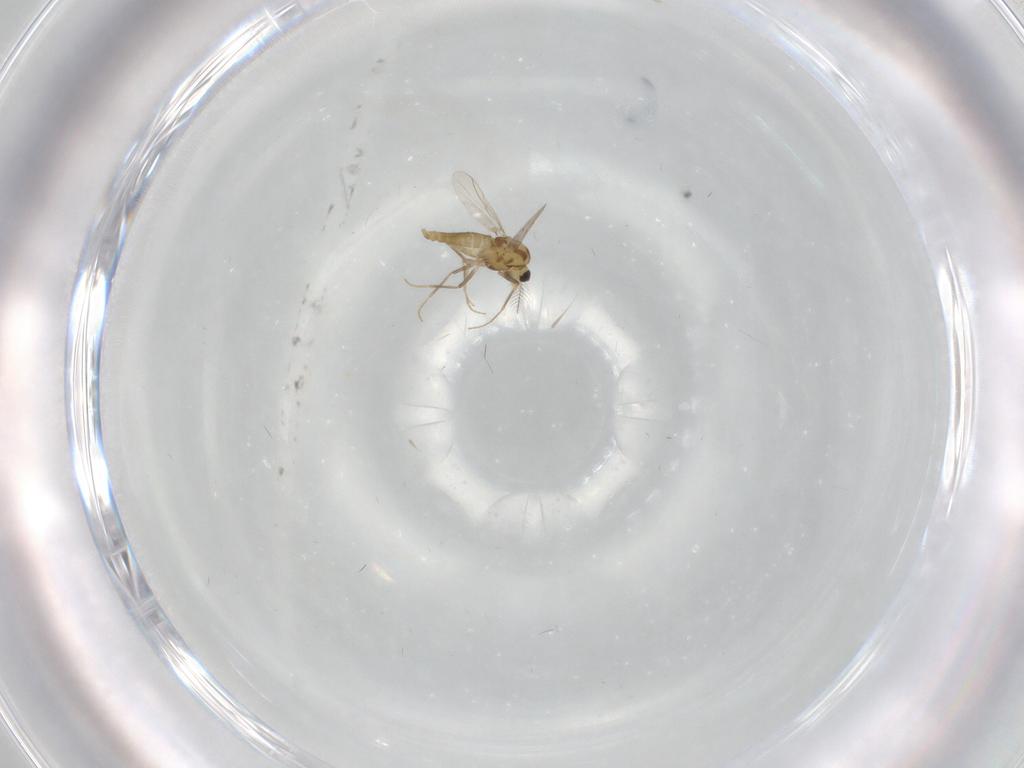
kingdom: Animalia
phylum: Arthropoda
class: Insecta
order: Diptera
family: Chironomidae
